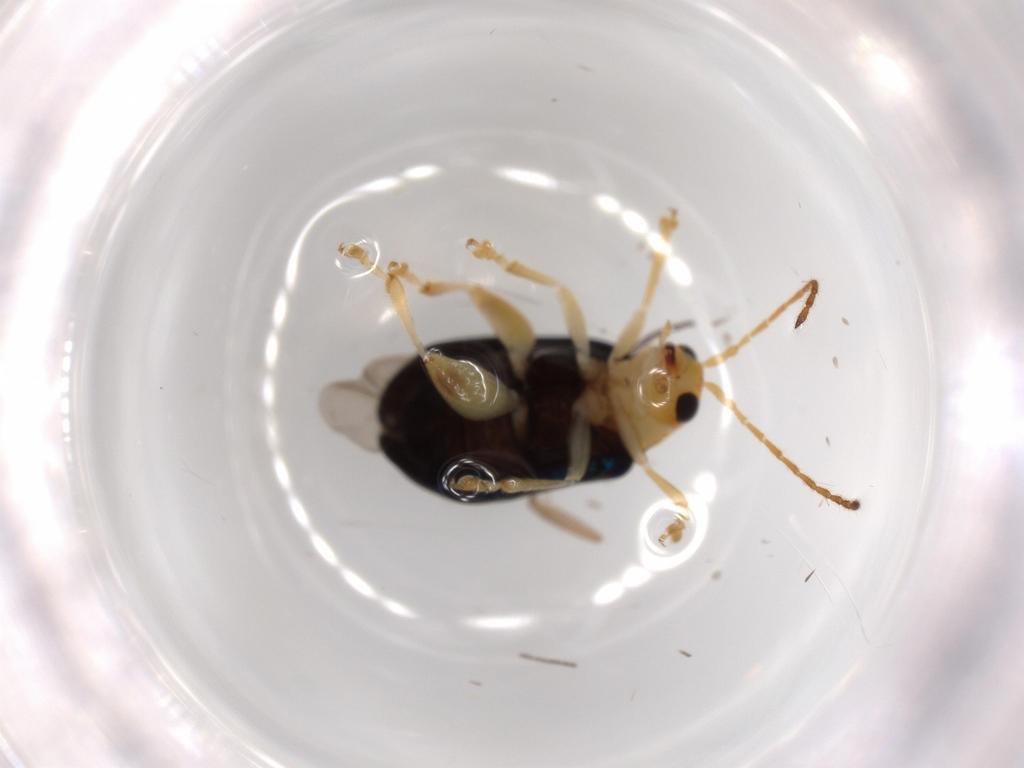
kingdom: Animalia
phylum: Arthropoda
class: Insecta
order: Coleoptera
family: Chrysomelidae
